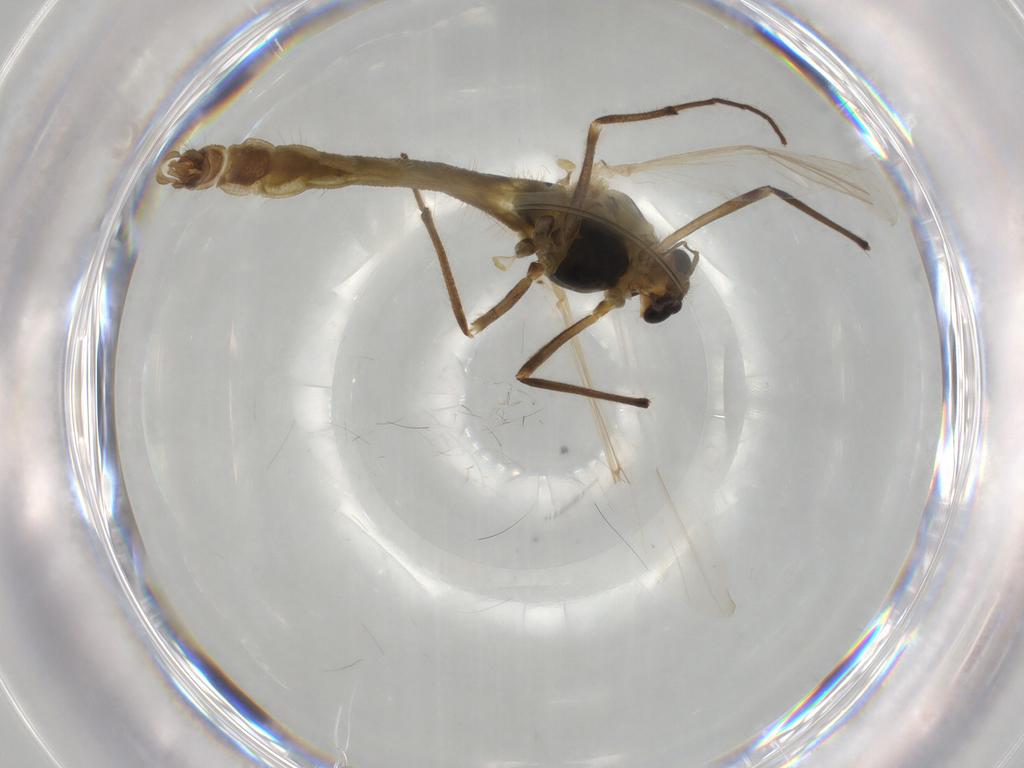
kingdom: Animalia
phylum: Arthropoda
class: Insecta
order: Diptera
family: Chironomidae
